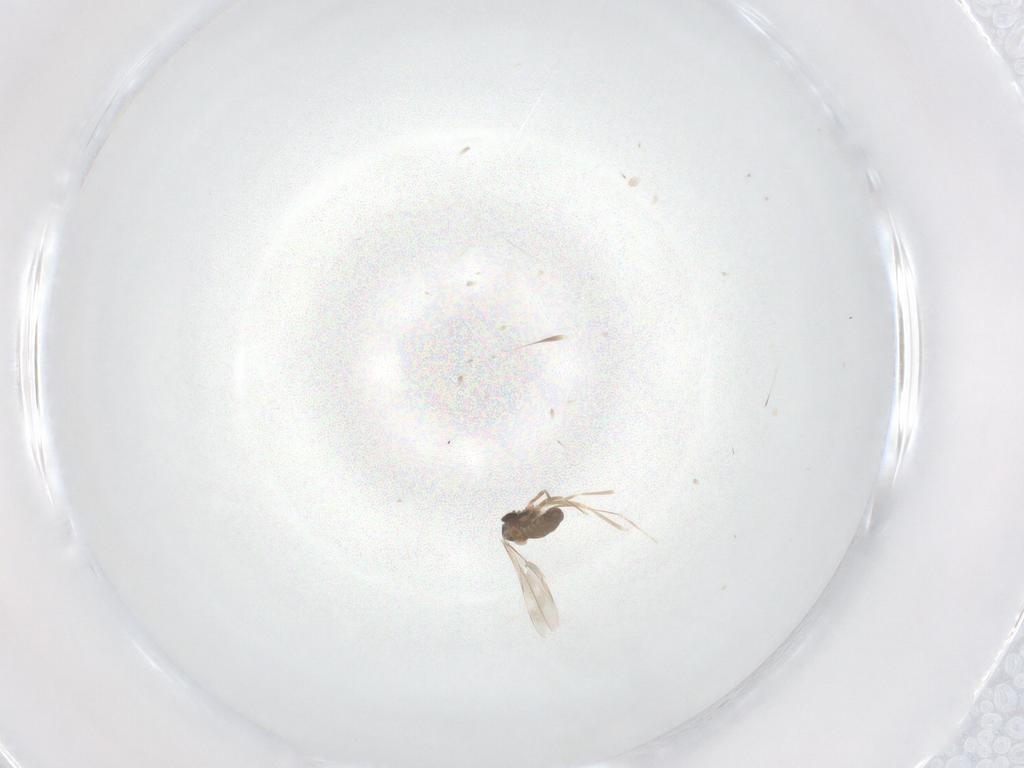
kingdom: Animalia
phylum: Arthropoda
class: Insecta
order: Diptera
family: Cecidomyiidae
